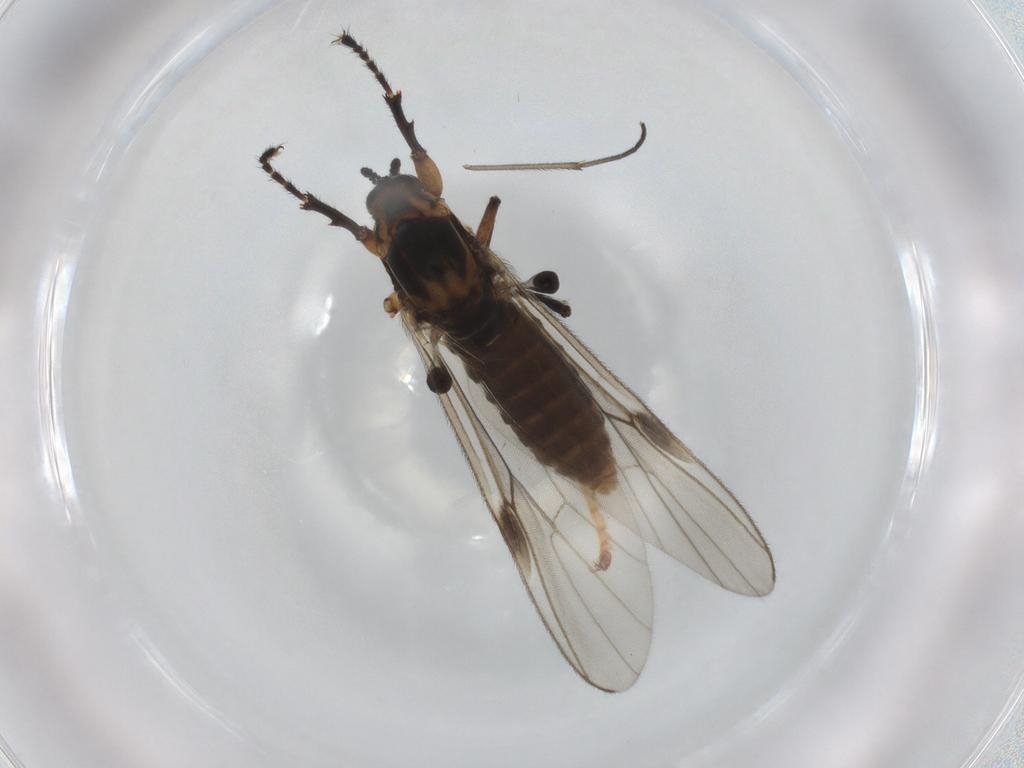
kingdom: Animalia
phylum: Arthropoda
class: Insecta
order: Diptera
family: Bibionidae
